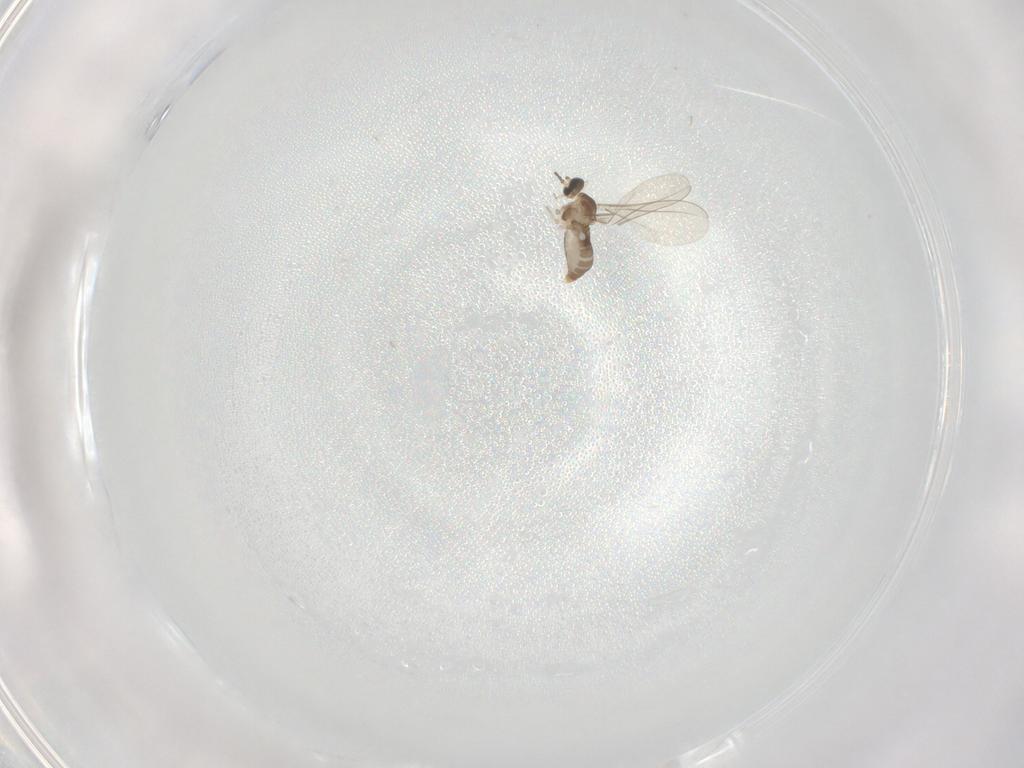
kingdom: Animalia
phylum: Arthropoda
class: Insecta
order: Diptera
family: Cecidomyiidae
